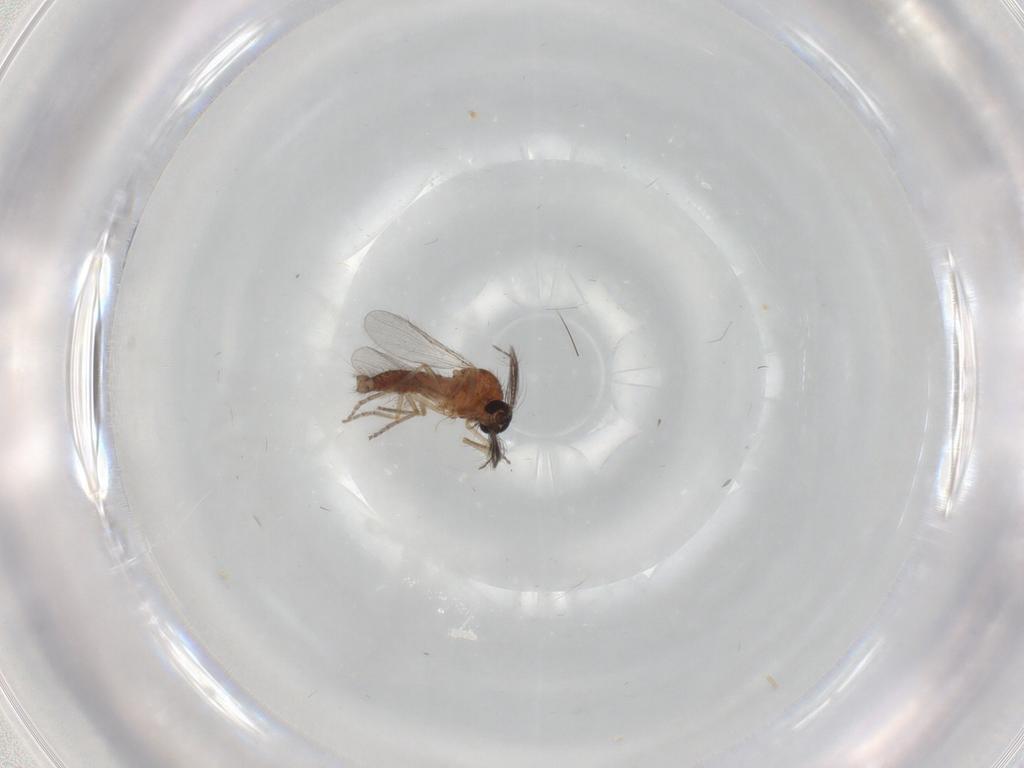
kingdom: Animalia
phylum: Arthropoda
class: Insecta
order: Diptera
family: Ceratopogonidae
